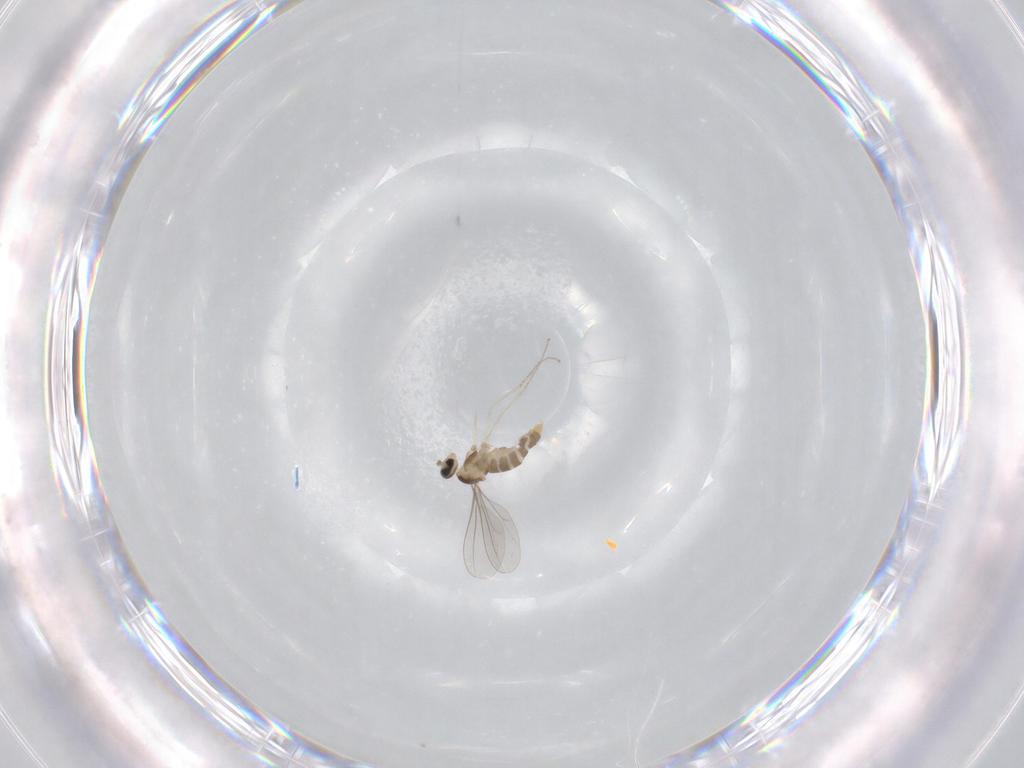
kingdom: Animalia
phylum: Arthropoda
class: Insecta
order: Diptera
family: Cecidomyiidae
